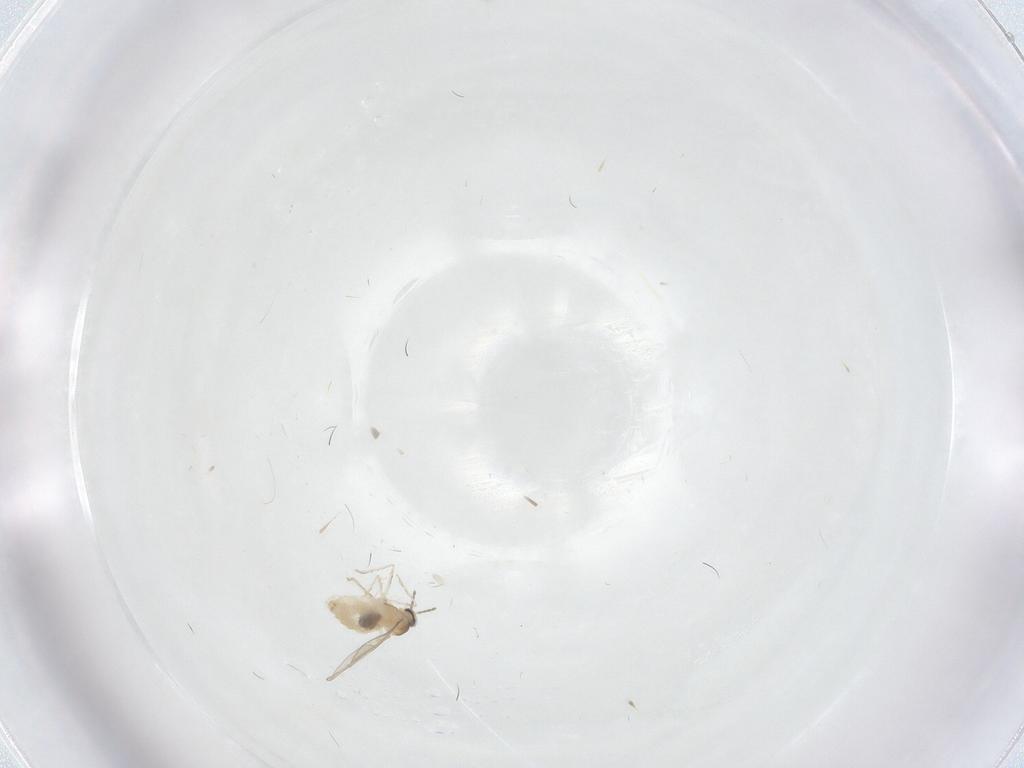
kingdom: Animalia
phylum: Arthropoda
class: Insecta
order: Diptera
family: Cecidomyiidae
